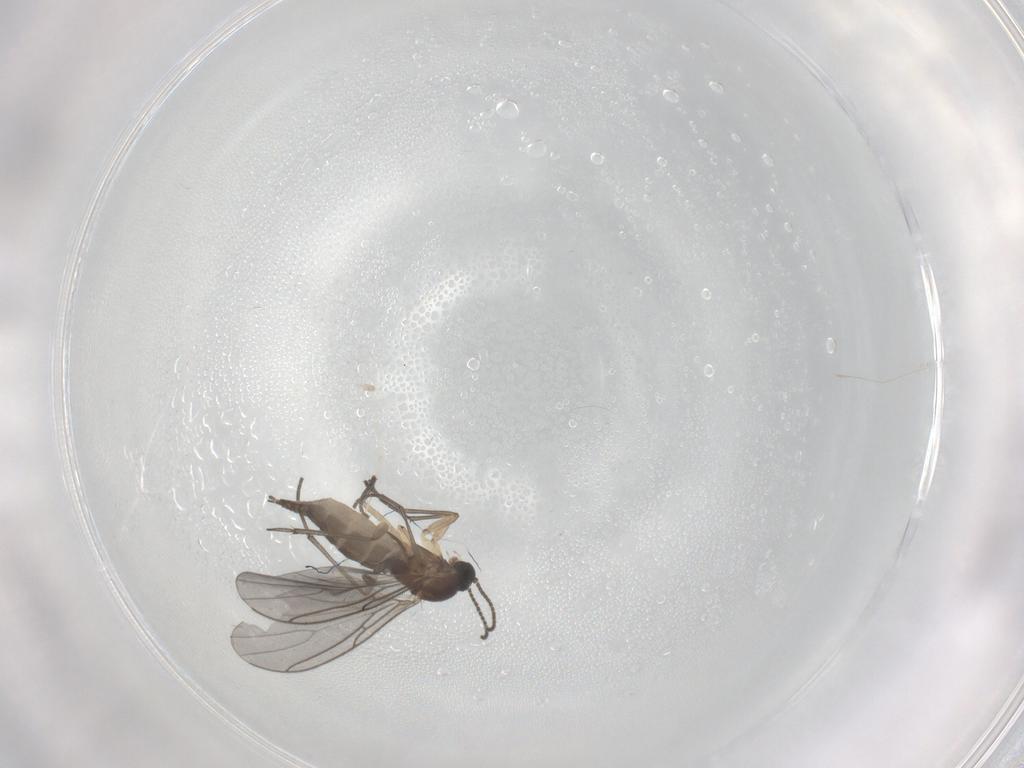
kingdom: Animalia
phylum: Arthropoda
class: Insecta
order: Diptera
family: Sciaridae
